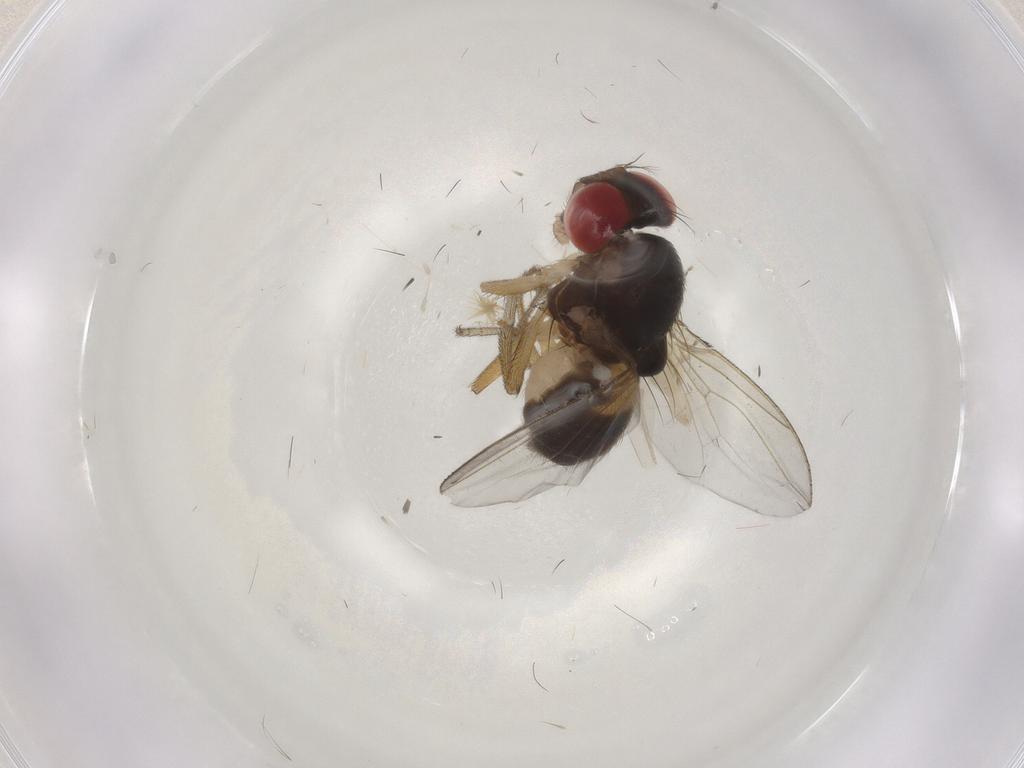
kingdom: Animalia
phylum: Arthropoda
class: Insecta
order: Diptera
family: Drosophilidae
